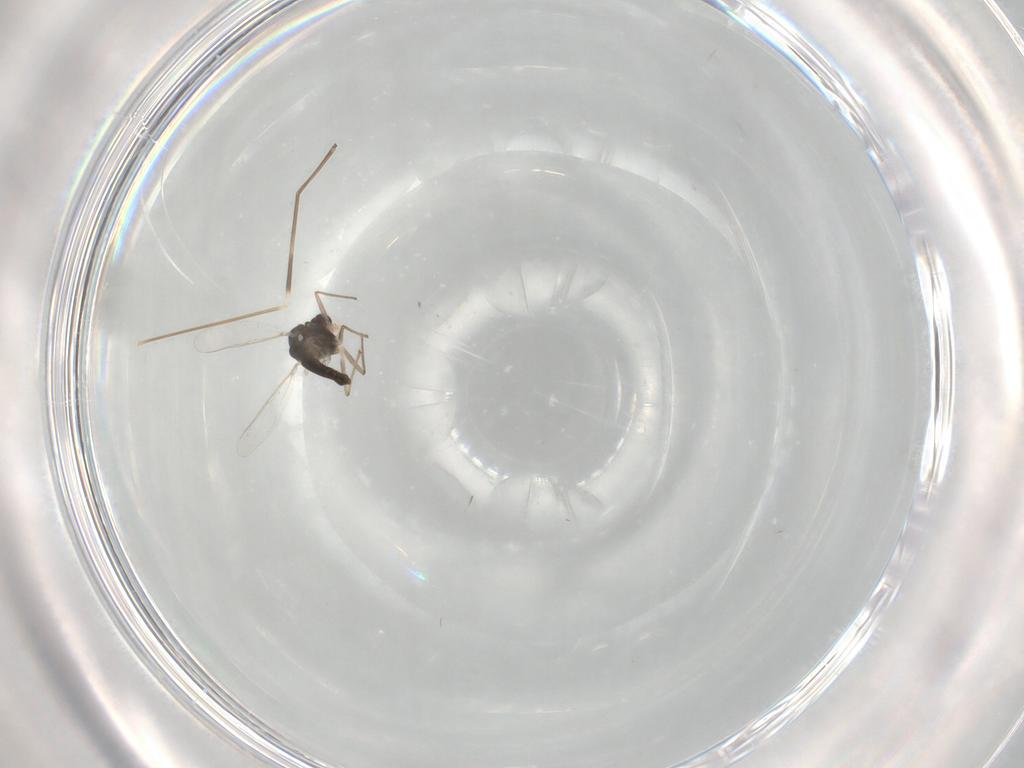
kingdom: Animalia
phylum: Arthropoda
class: Insecta
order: Diptera
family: Chironomidae
